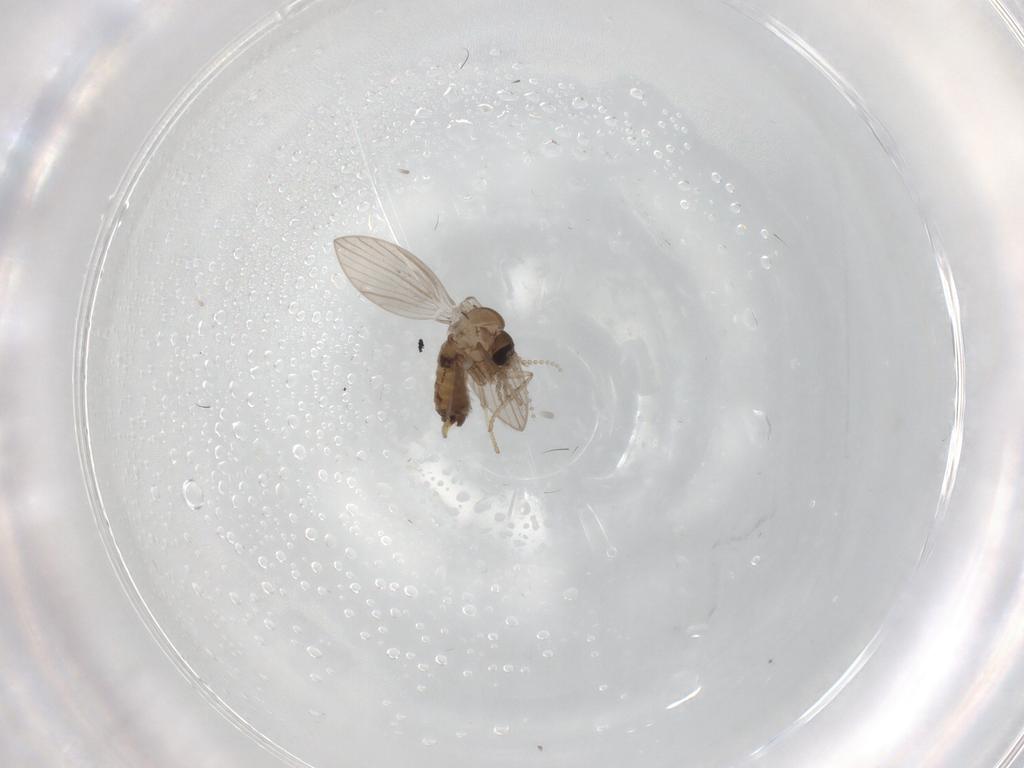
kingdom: Animalia
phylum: Arthropoda
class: Insecta
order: Diptera
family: Psychodidae
